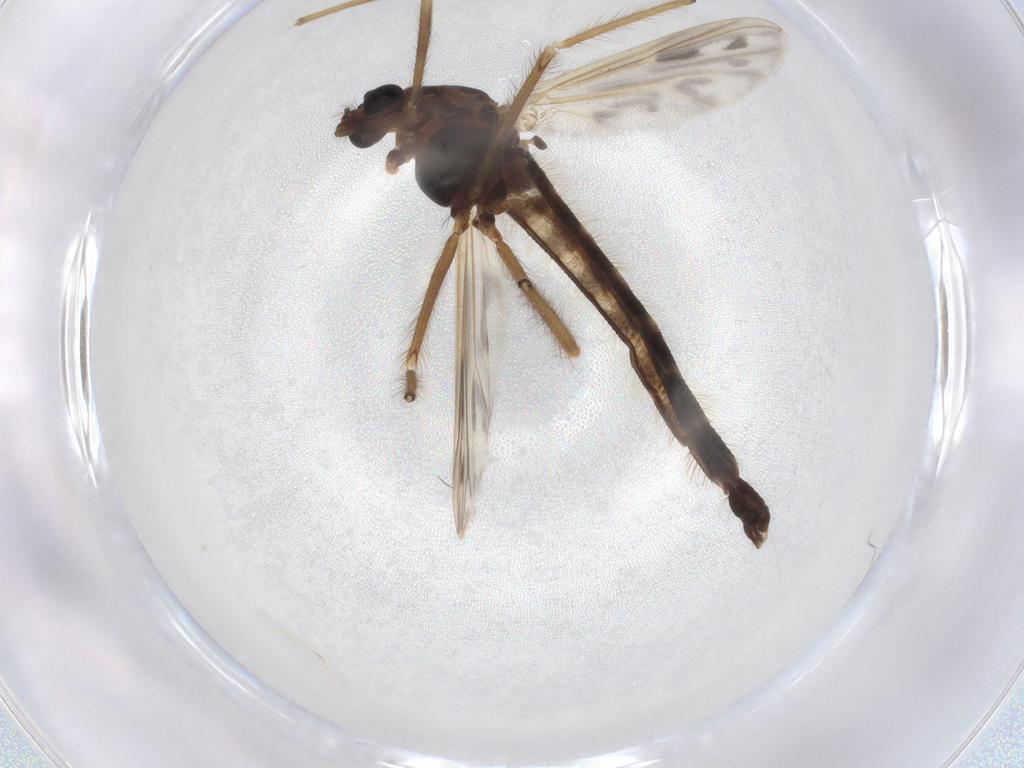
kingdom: Animalia
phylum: Arthropoda
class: Insecta
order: Diptera
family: Chironomidae
